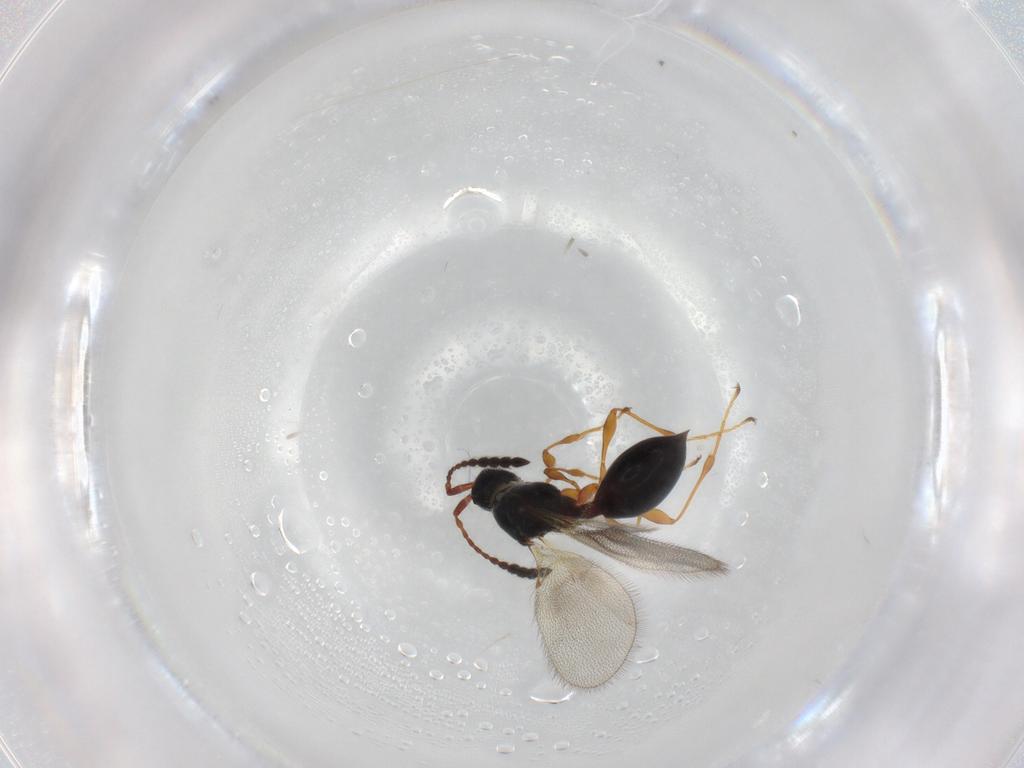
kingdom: Animalia
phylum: Arthropoda
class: Insecta
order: Hymenoptera
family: Diapriidae
